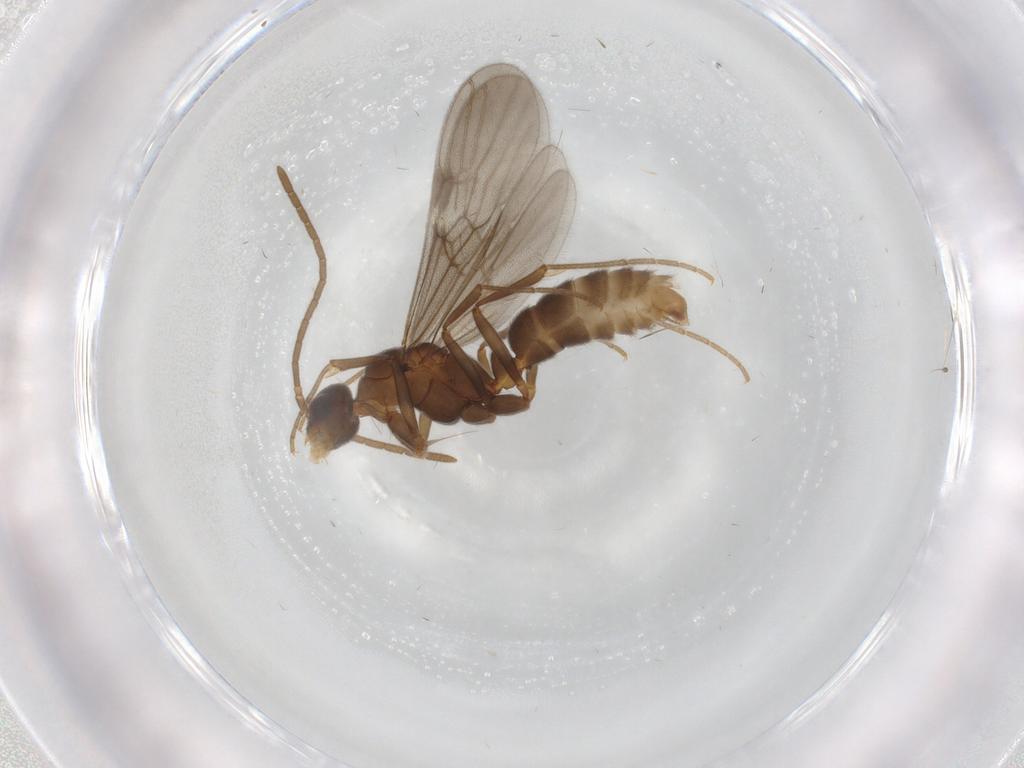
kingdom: Animalia
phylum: Arthropoda
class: Insecta
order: Hymenoptera
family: Formicidae
